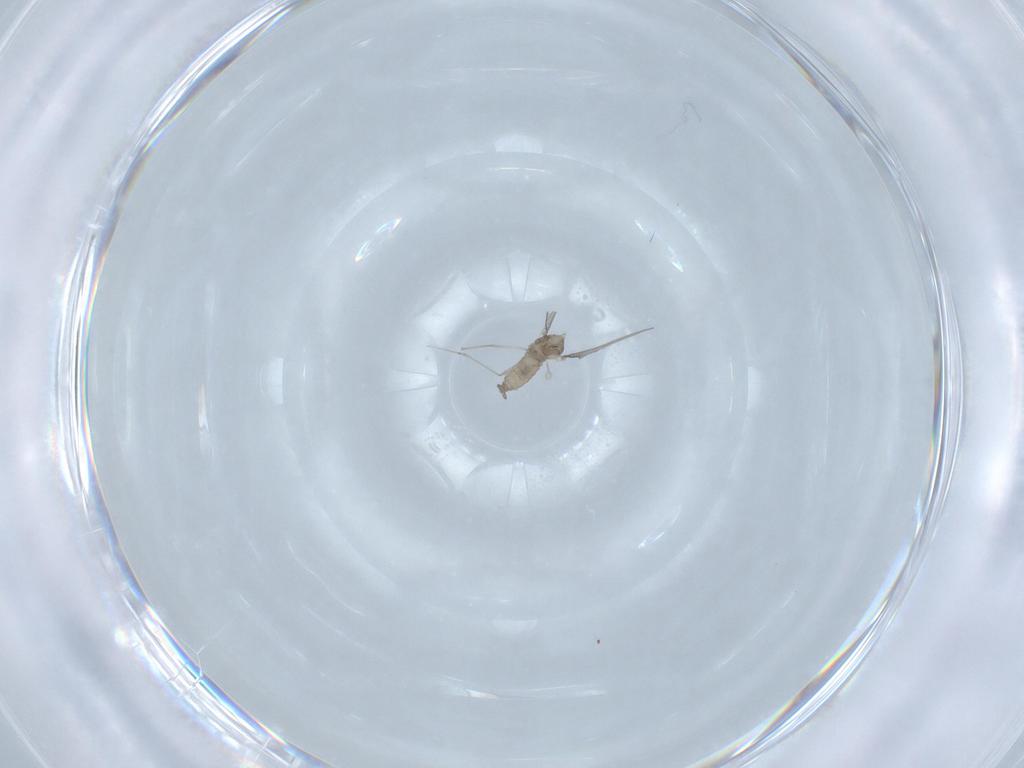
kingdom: Animalia
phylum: Arthropoda
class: Insecta
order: Diptera
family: Cecidomyiidae
